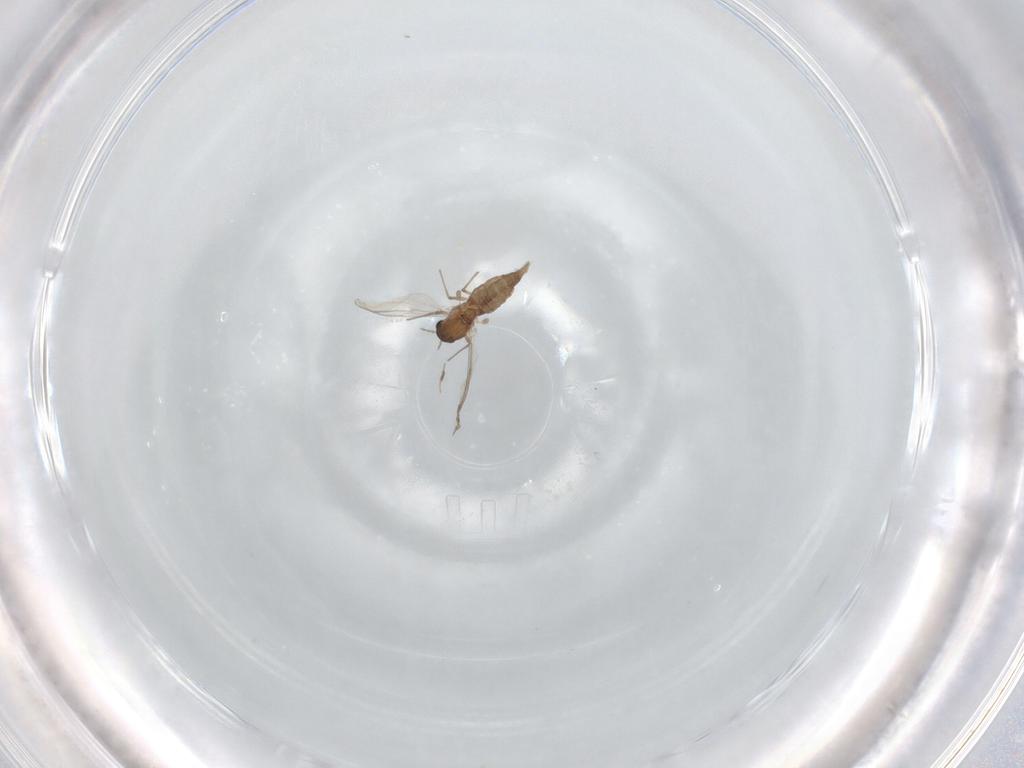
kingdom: Animalia
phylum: Arthropoda
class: Insecta
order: Diptera
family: Chironomidae
